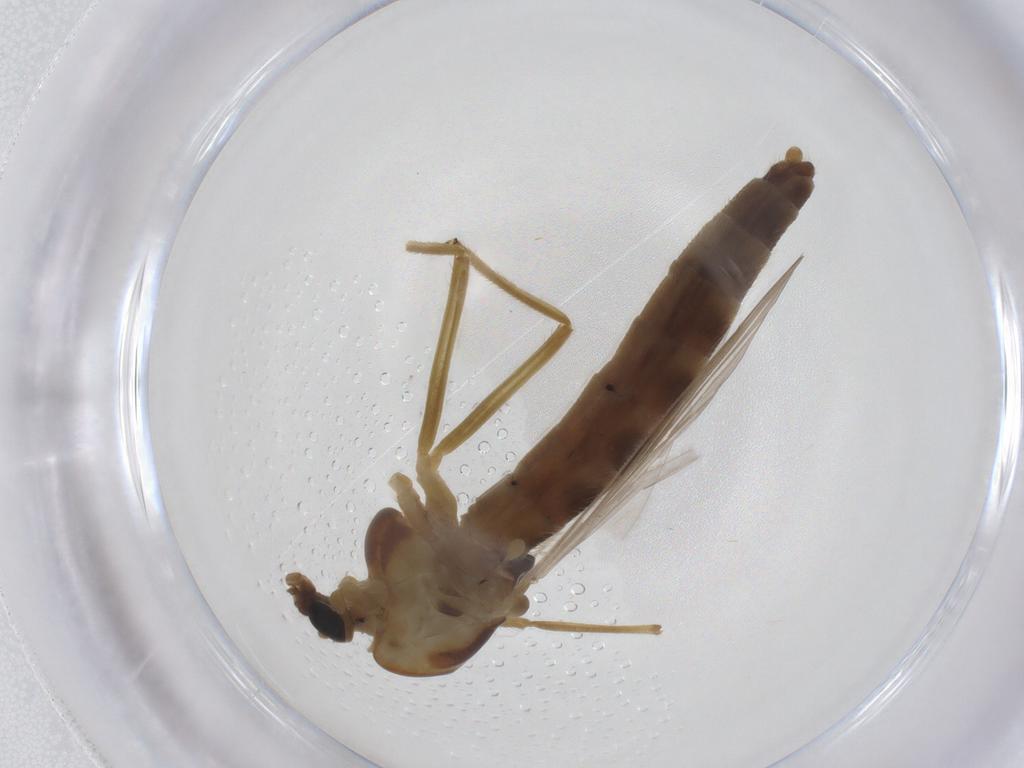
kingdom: Animalia
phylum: Arthropoda
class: Insecta
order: Diptera
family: Chironomidae
